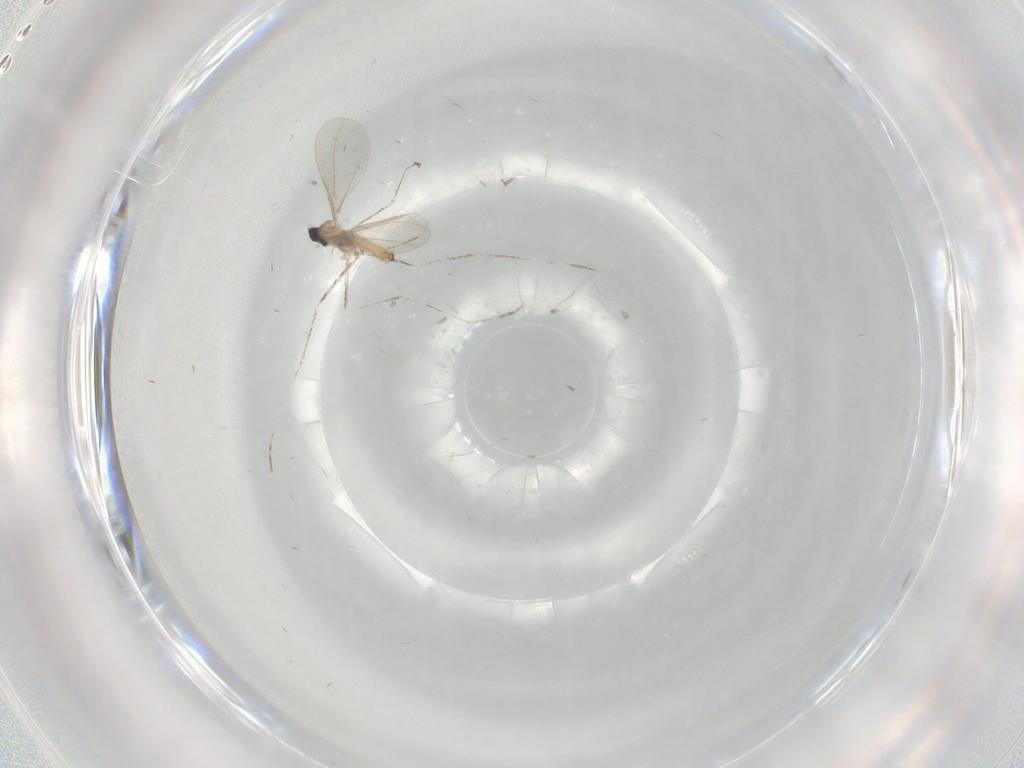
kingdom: Animalia
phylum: Arthropoda
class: Insecta
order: Diptera
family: Cecidomyiidae
